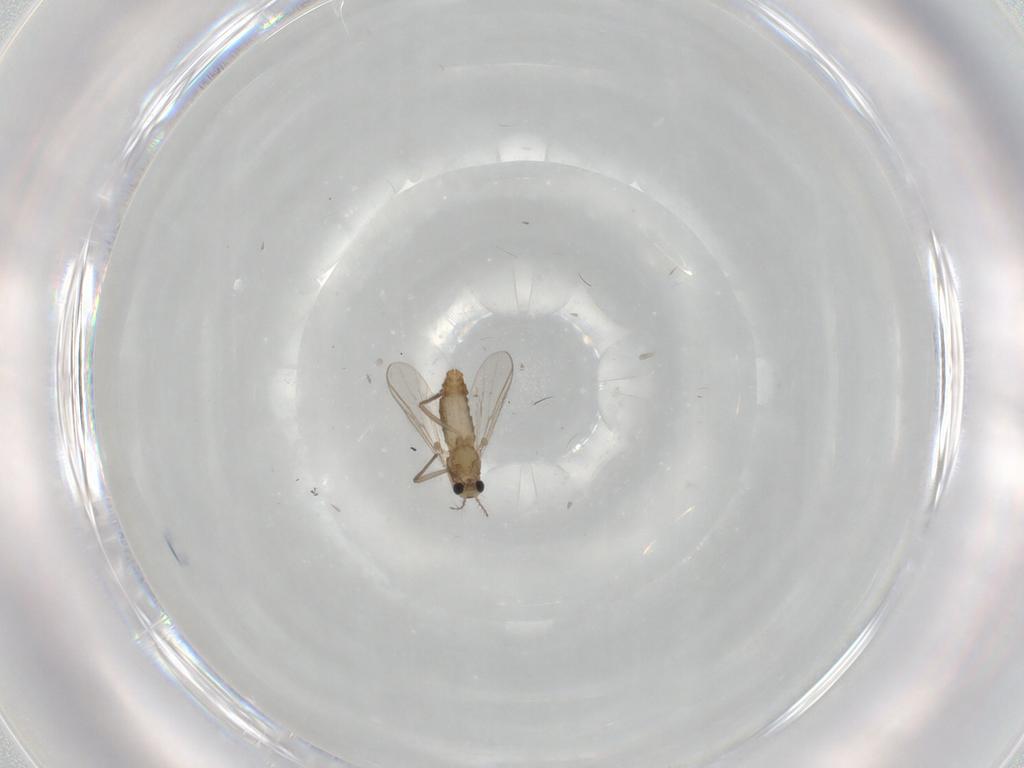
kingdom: Animalia
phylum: Arthropoda
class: Insecta
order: Diptera
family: Chironomidae
